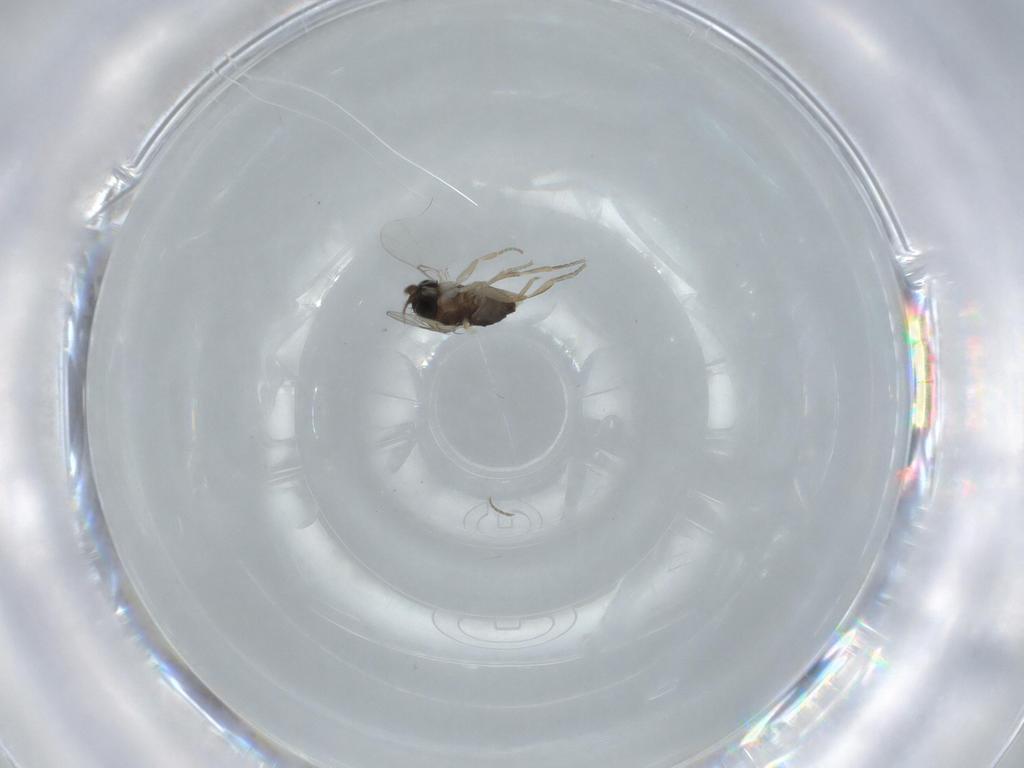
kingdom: Animalia
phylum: Arthropoda
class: Insecta
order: Diptera
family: Phoridae
